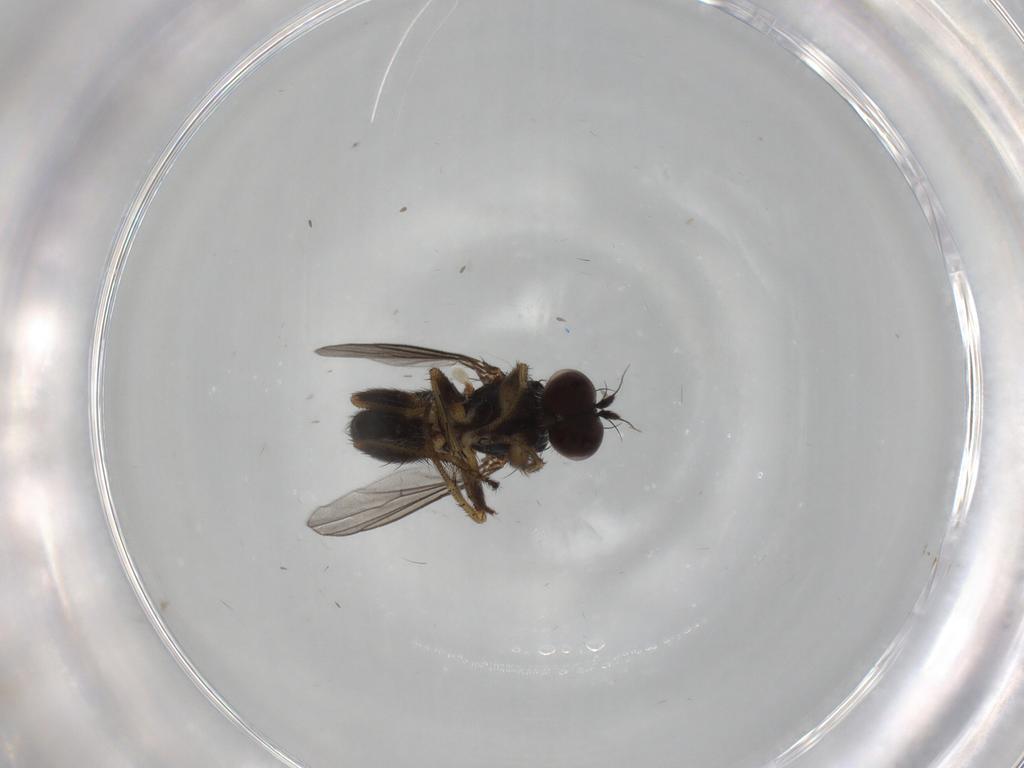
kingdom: Animalia
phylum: Arthropoda
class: Insecta
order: Diptera
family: Dolichopodidae
